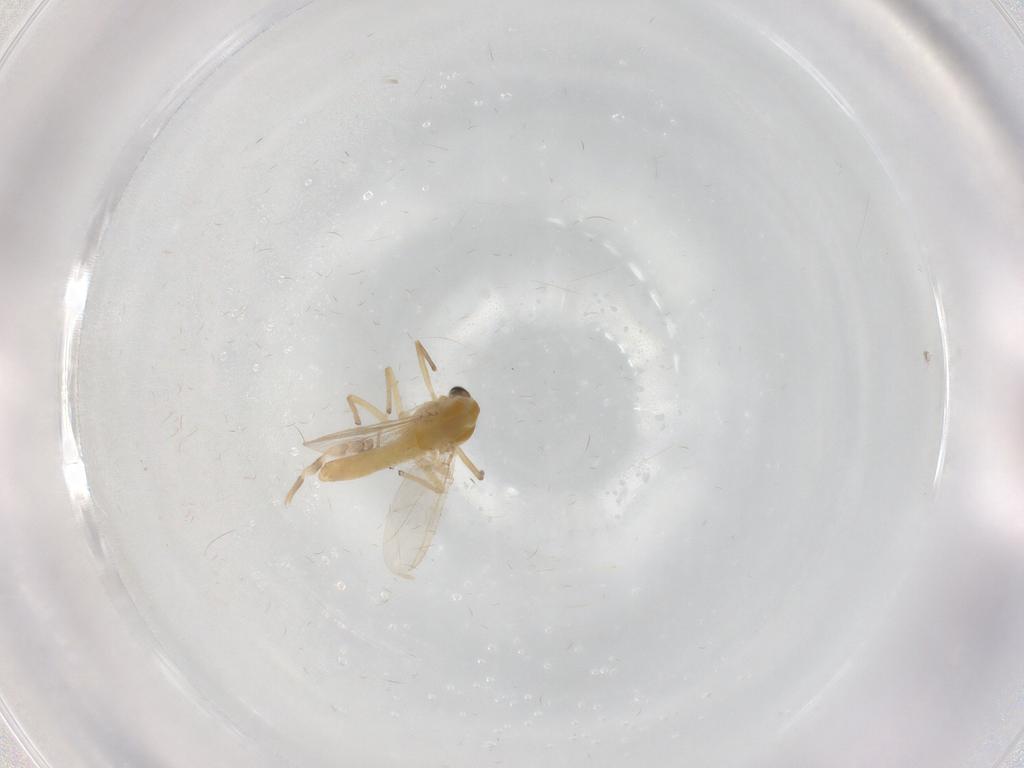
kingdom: Animalia
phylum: Arthropoda
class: Insecta
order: Diptera
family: Chironomidae
